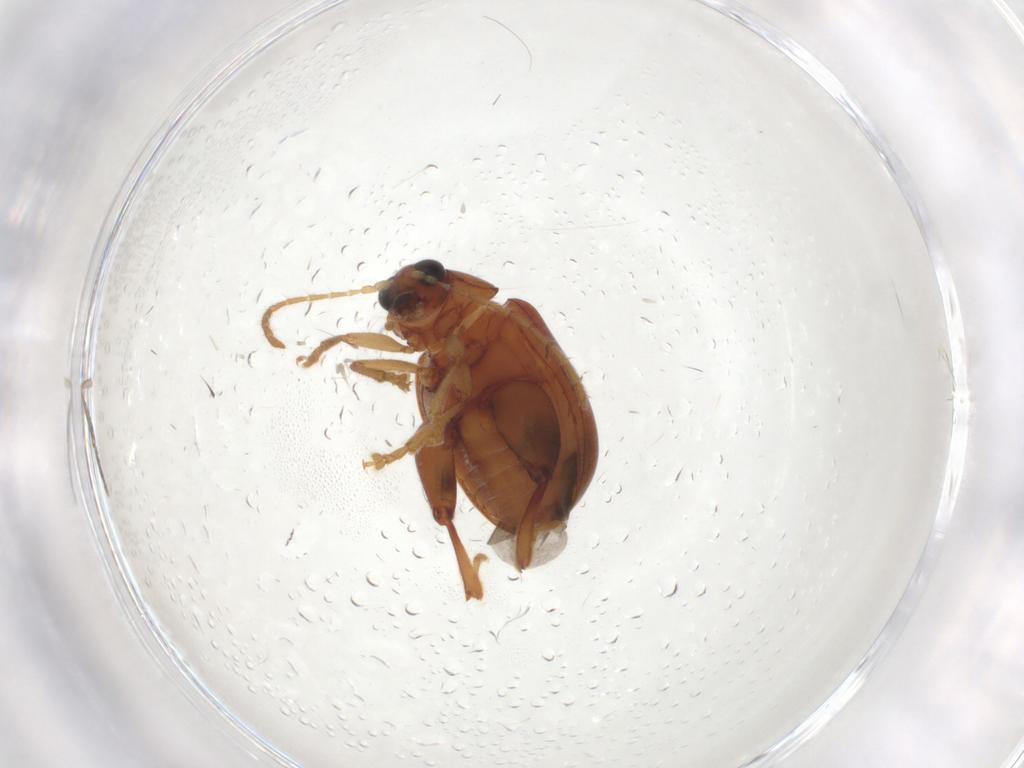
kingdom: Animalia
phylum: Arthropoda
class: Insecta
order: Coleoptera
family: Chrysomelidae
